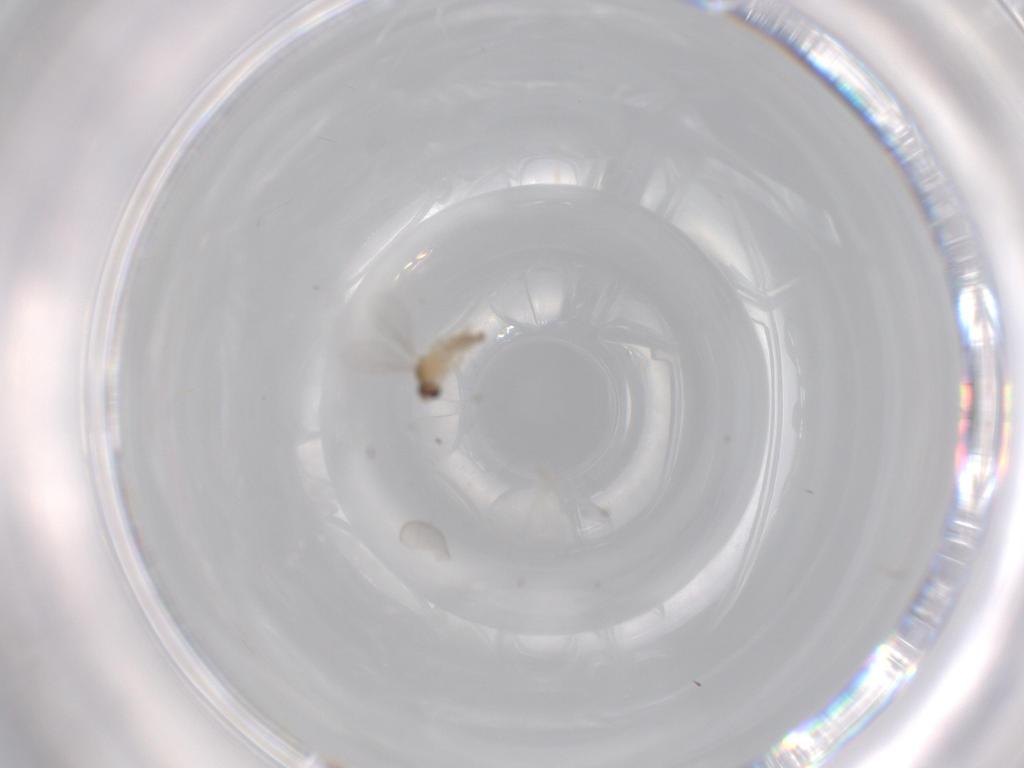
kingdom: Animalia
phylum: Arthropoda
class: Insecta
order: Diptera
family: Cecidomyiidae
